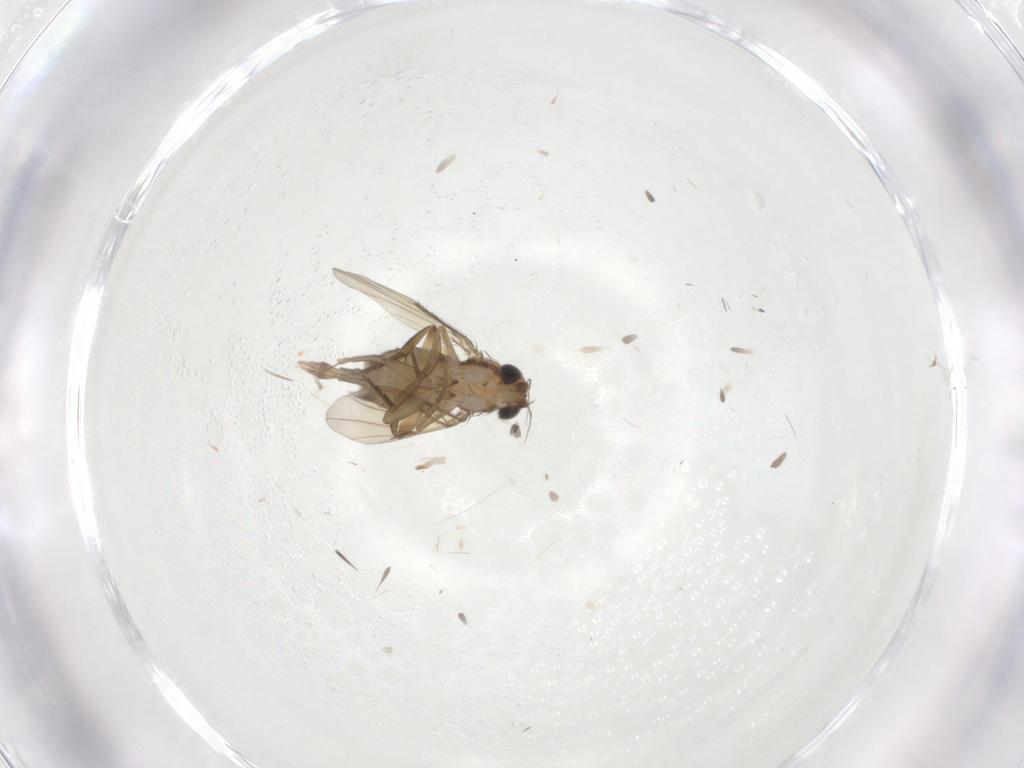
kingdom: Animalia
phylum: Arthropoda
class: Insecta
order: Diptera
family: Phoridae
